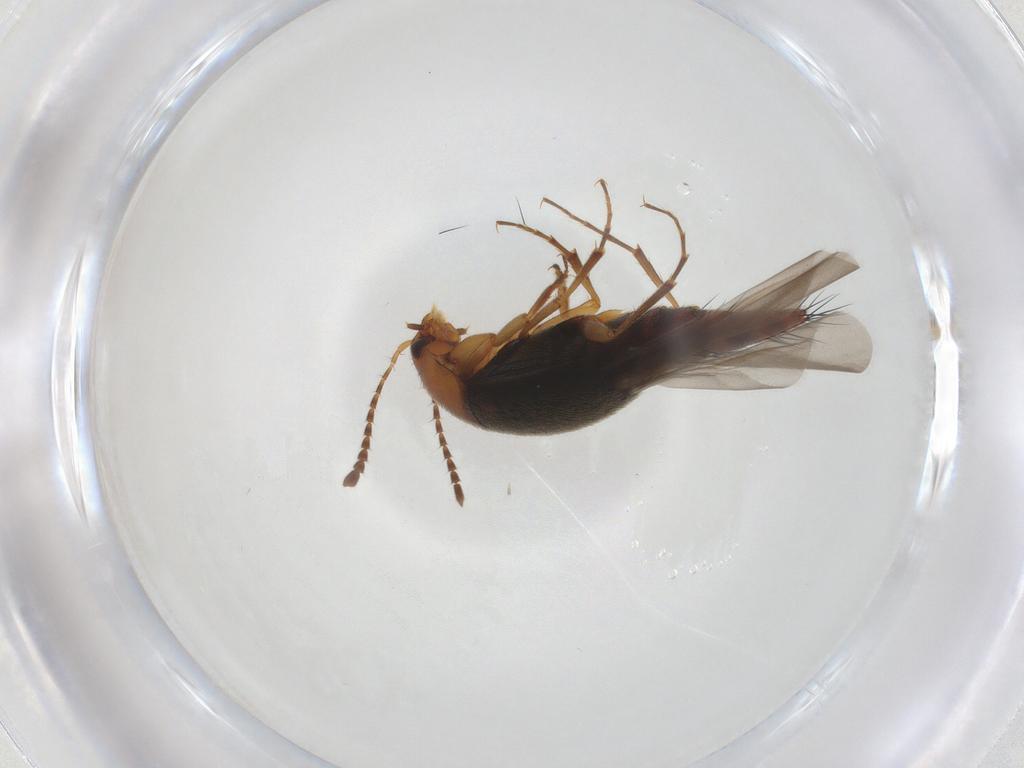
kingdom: Animalia
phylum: Arthropoda
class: Insecta
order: Coleoptera
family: Staphylinidae
